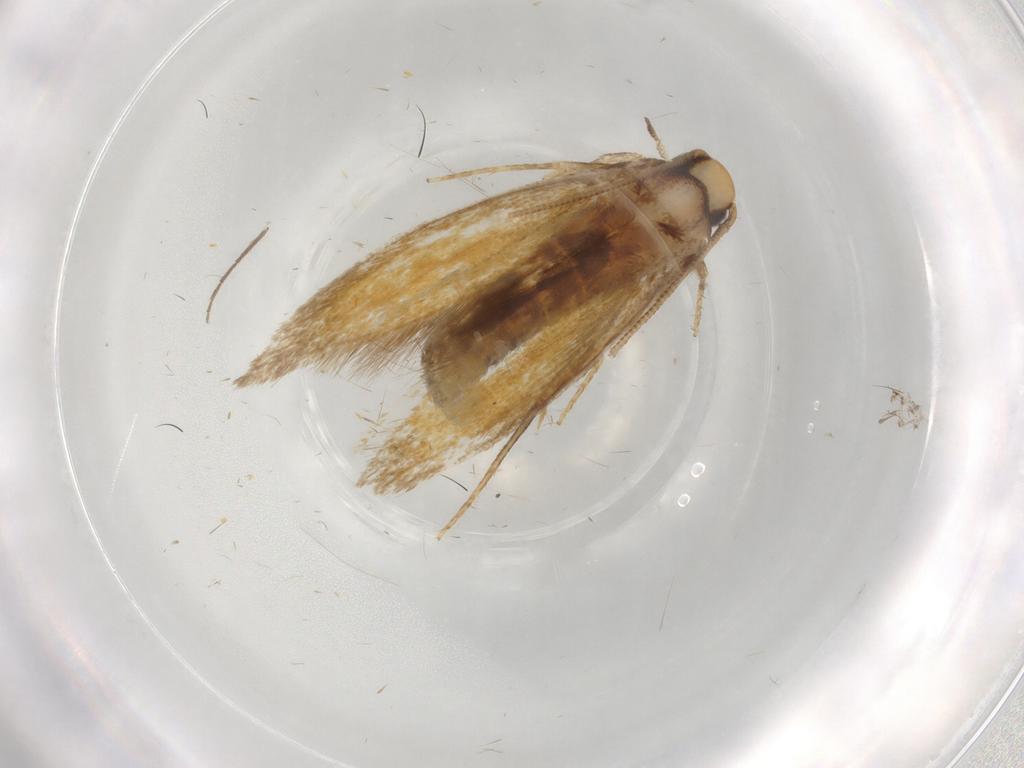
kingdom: Animalia
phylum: Arthropoda
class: Insecta
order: Lepidoptera
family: Tineidae
